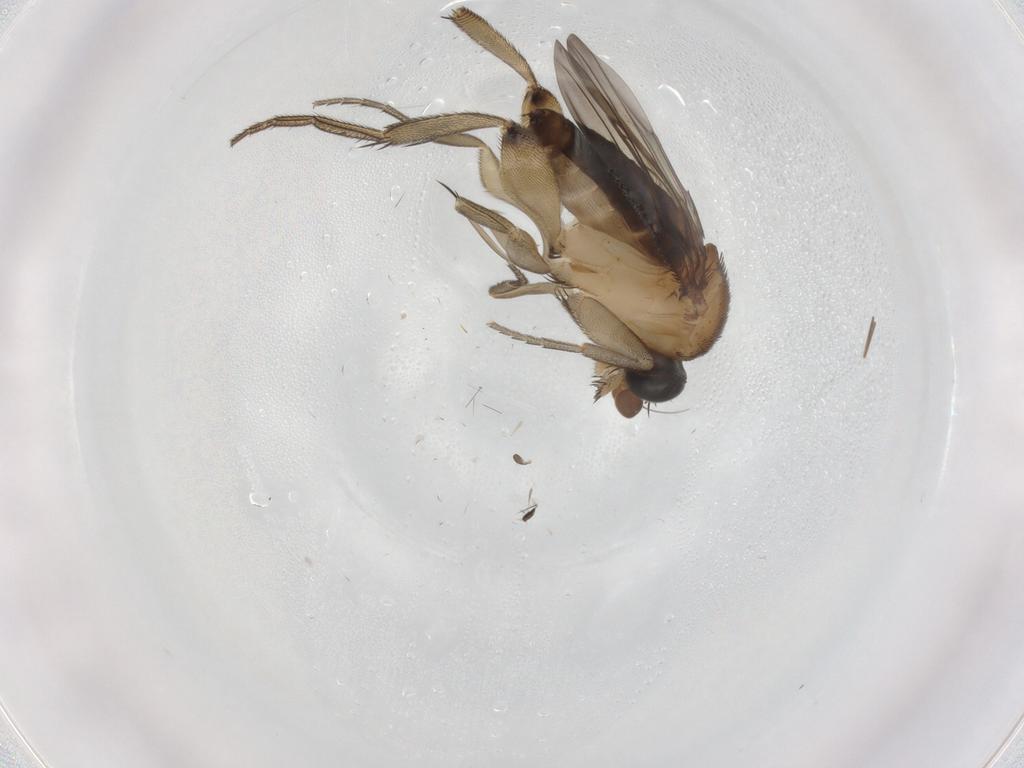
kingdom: Animalia
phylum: Arthropoda
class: Insecta
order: Diptera
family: Phoridae
